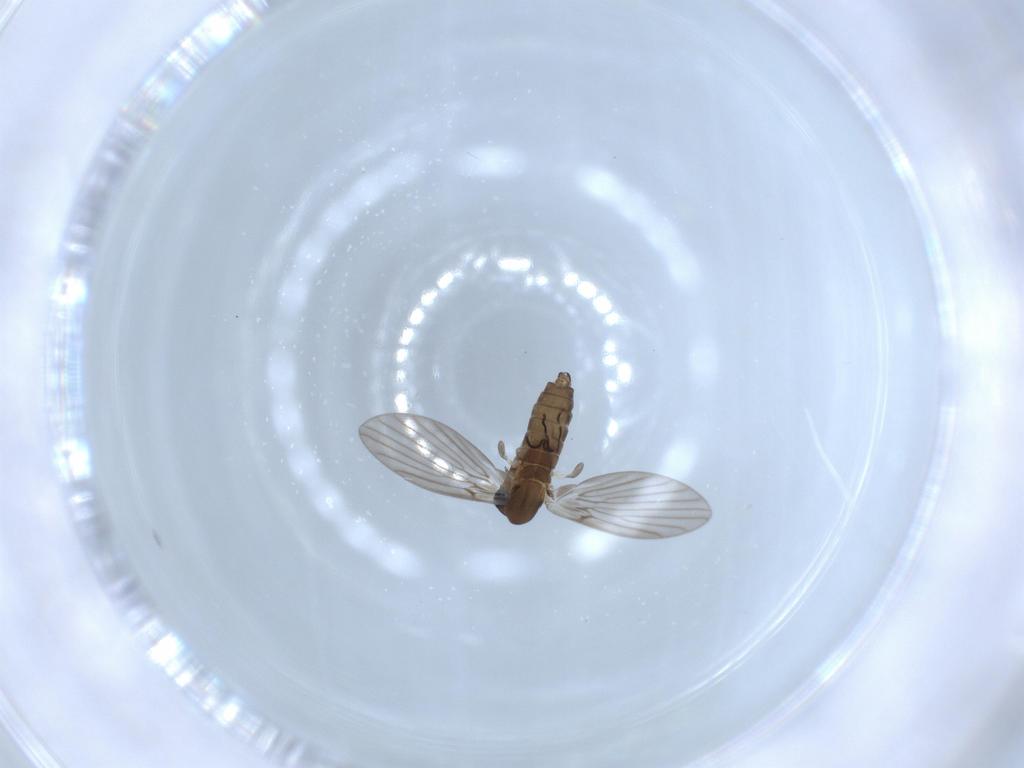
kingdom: Animalia
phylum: Arthropoda
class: Insecta
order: Diptera
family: Psychodidae
